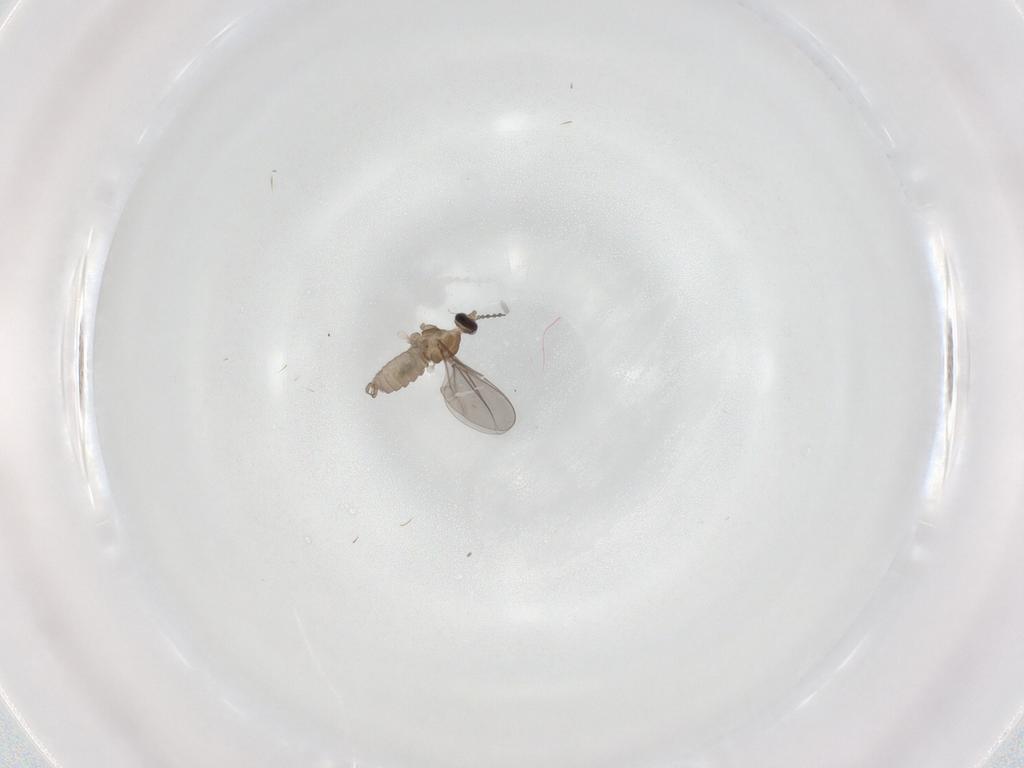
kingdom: Animalia
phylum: Arthropoda
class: Insecta
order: Diptera
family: Cecidomyiidae
